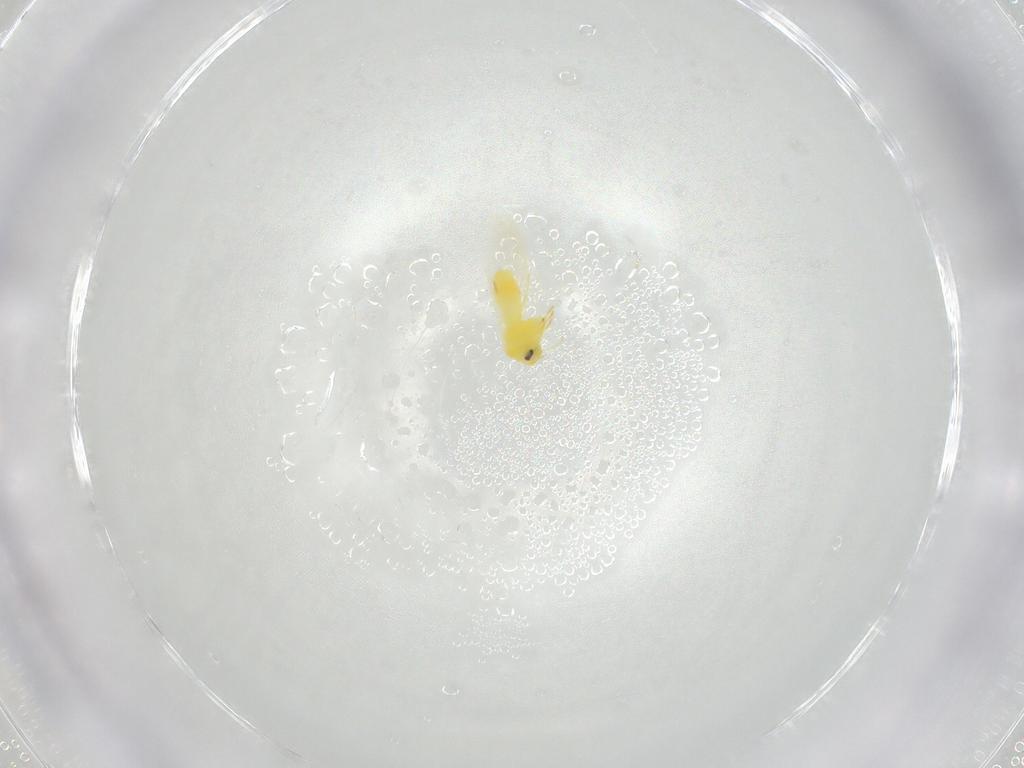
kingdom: Animalia
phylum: Arthropoda
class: Insecta
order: Hemiptera
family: Aleyrodidae
